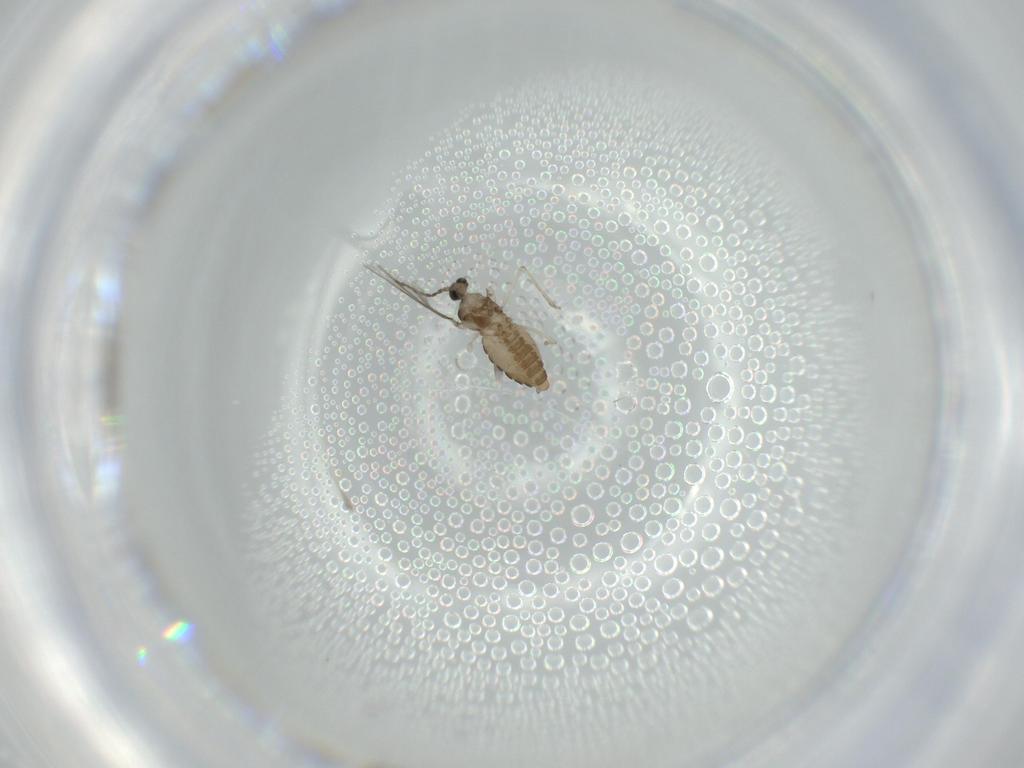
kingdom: Animalia
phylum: Arthropoda
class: Insecta
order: Diptera
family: Cecidomyiidae
